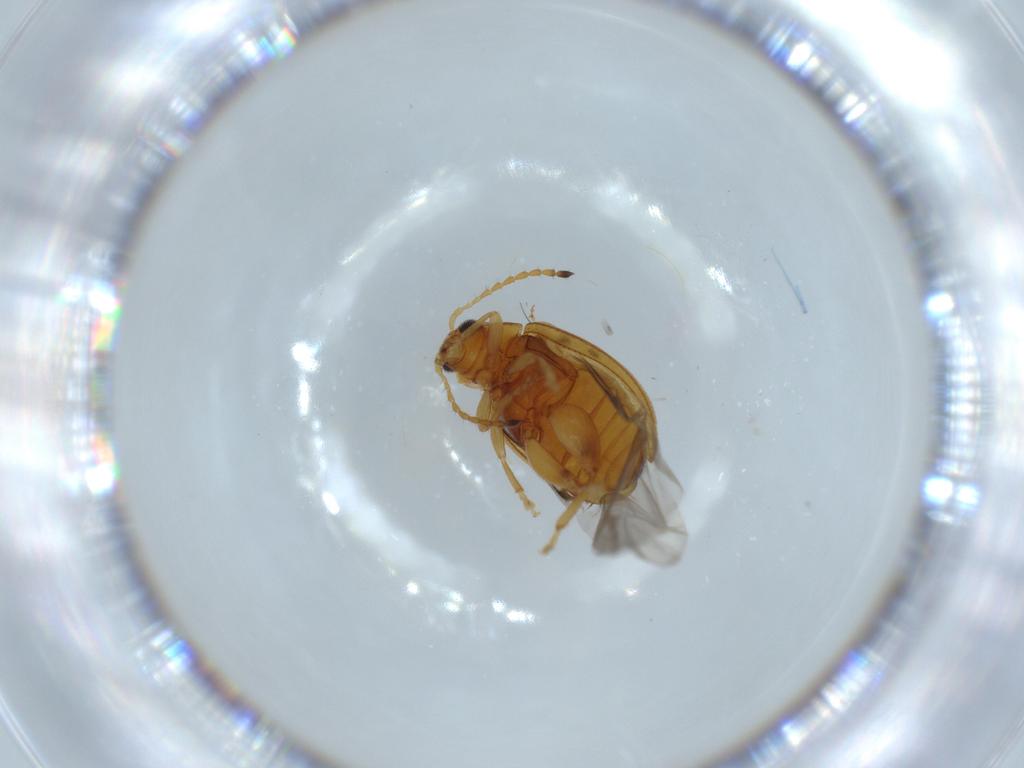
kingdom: Animalia
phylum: Arthropoda
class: Insecta
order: Coleoptera
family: Chrysomelidae
